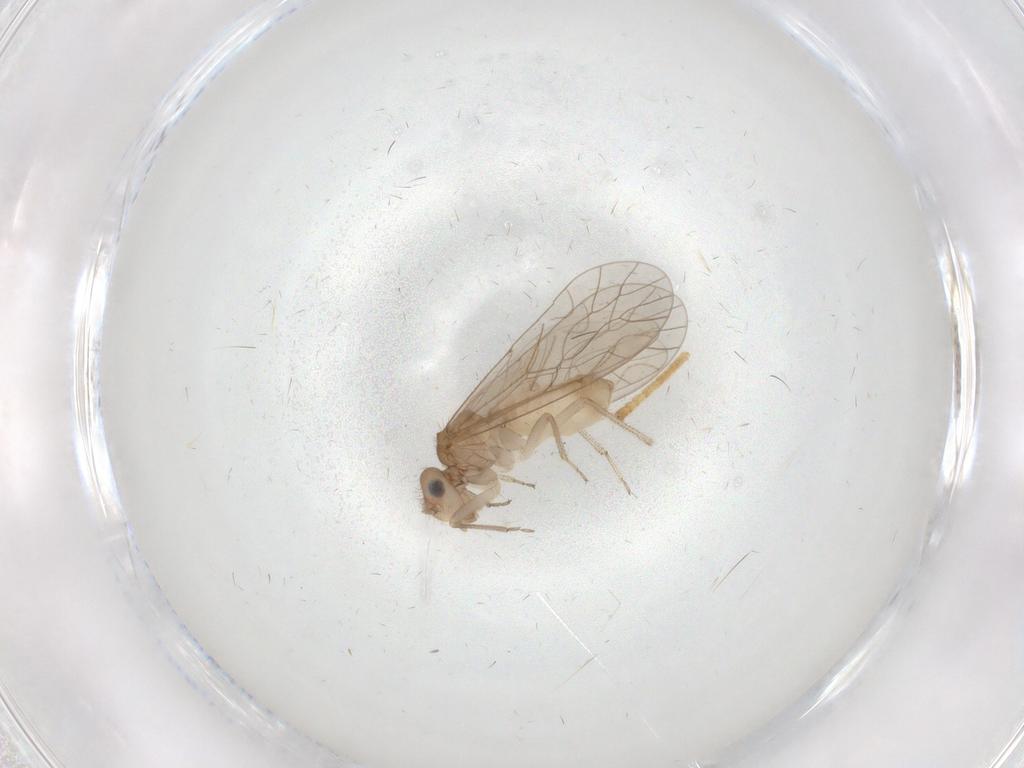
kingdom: Animalia
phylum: Arthropoda
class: Insecta
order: Psocodea
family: Caeciliusidae
